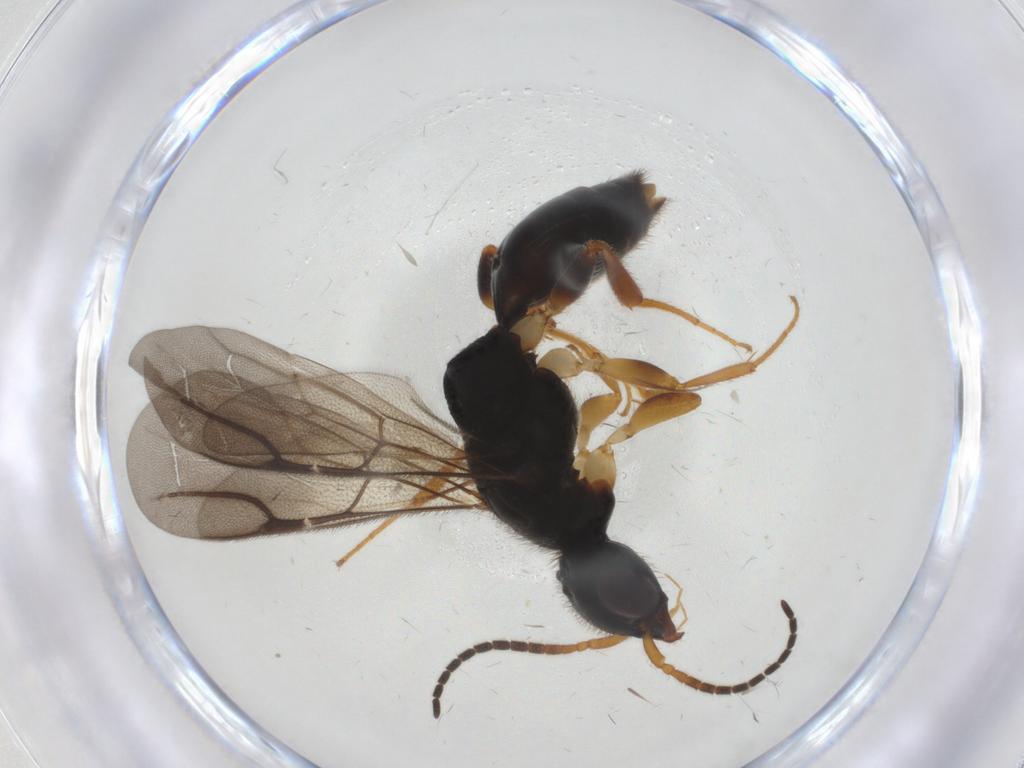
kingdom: Animalia
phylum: Arthropoda
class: Insecta
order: Hymenoptera
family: Bethylidae
